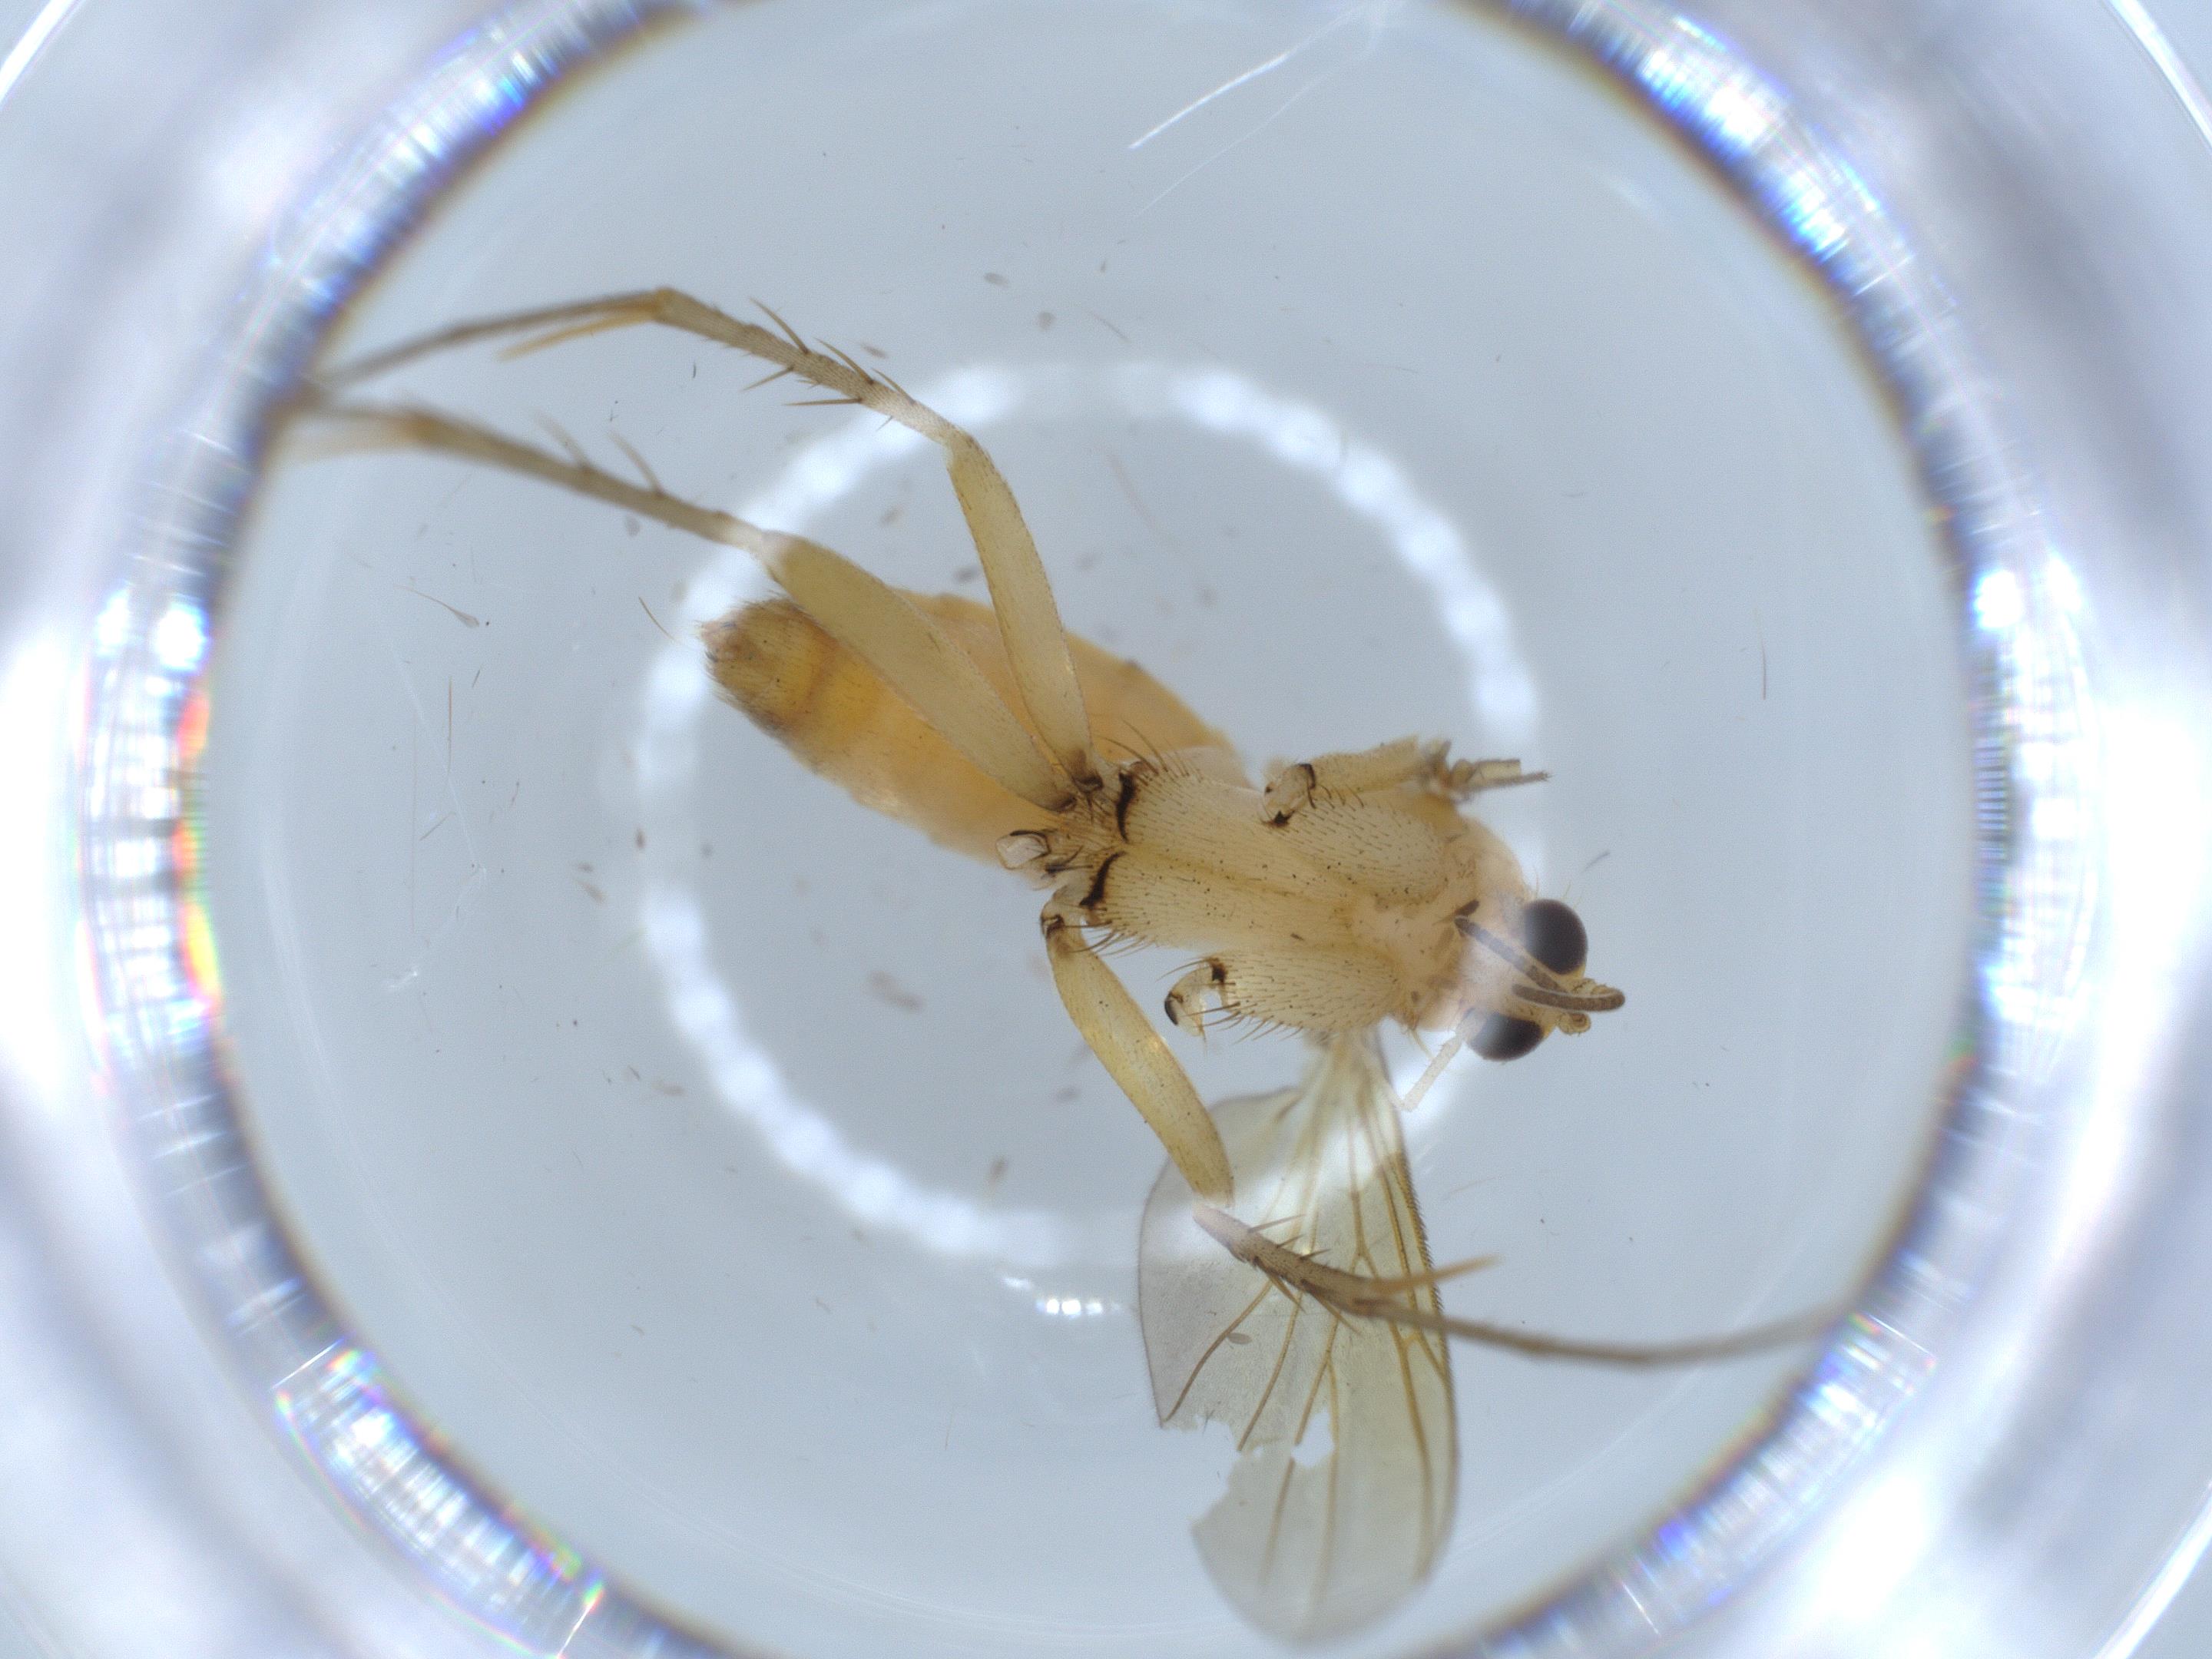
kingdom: Animalia
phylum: Arthropoda
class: Insecta
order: Diptera
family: Mycetophilidae
